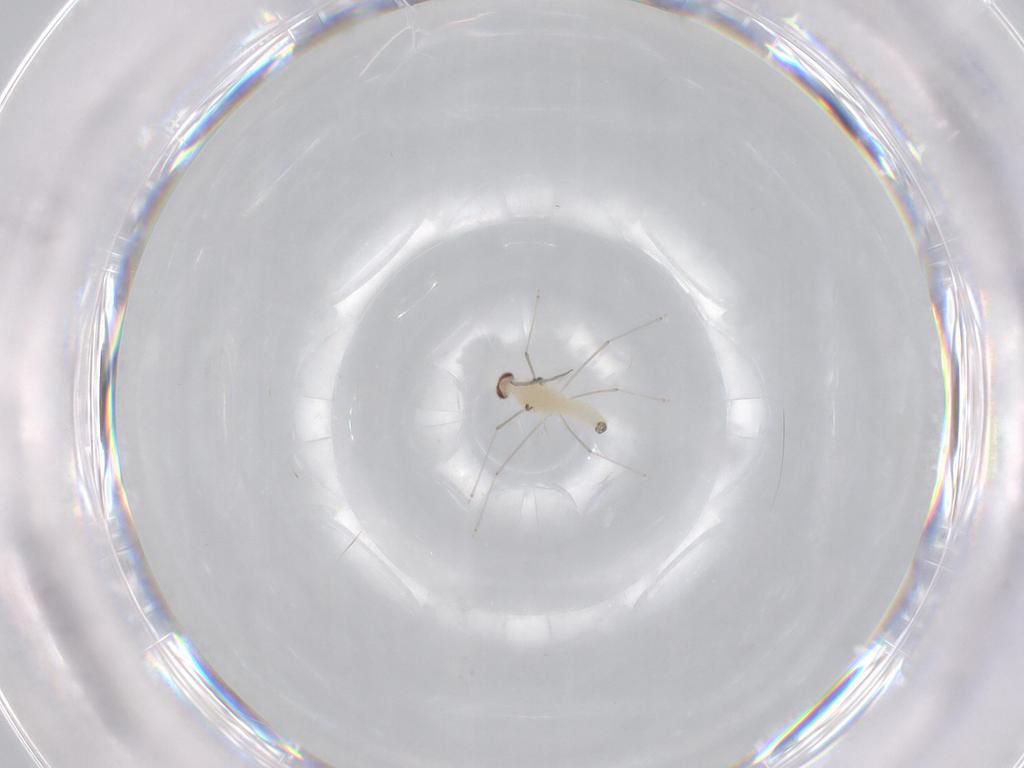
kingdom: Animalia
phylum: Arthropoda
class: Insecta
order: Diptera
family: Cecidomyiidae
